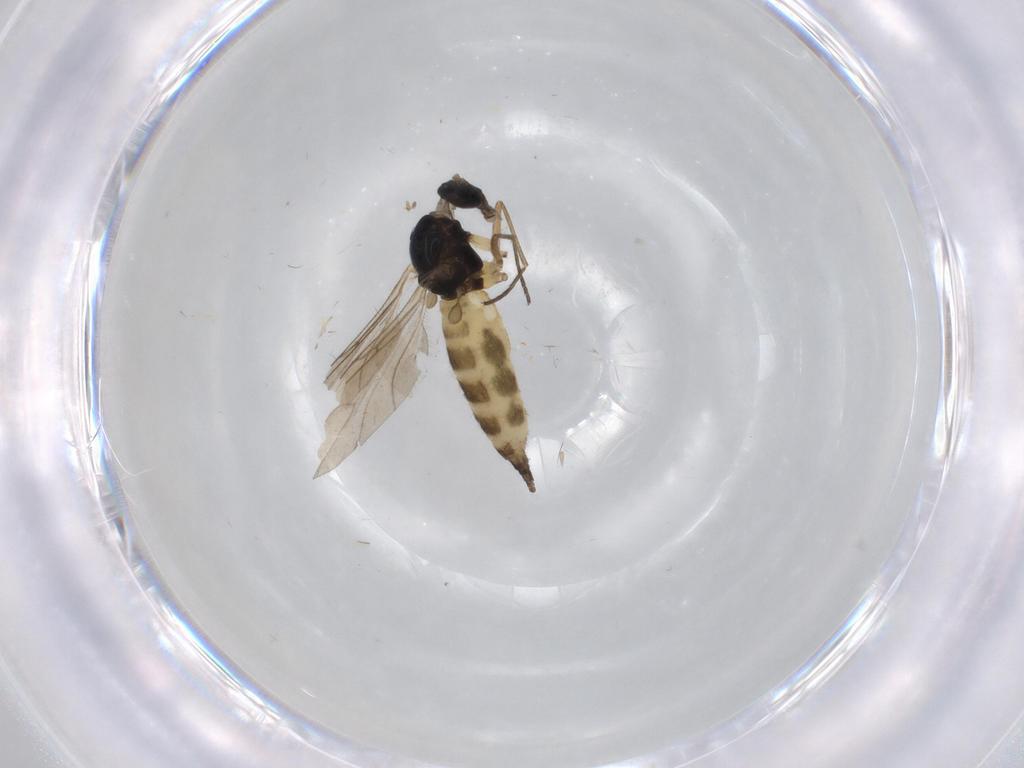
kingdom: Animalia
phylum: Arthropoda
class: Insecta
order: Diptera
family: Sciaridae
